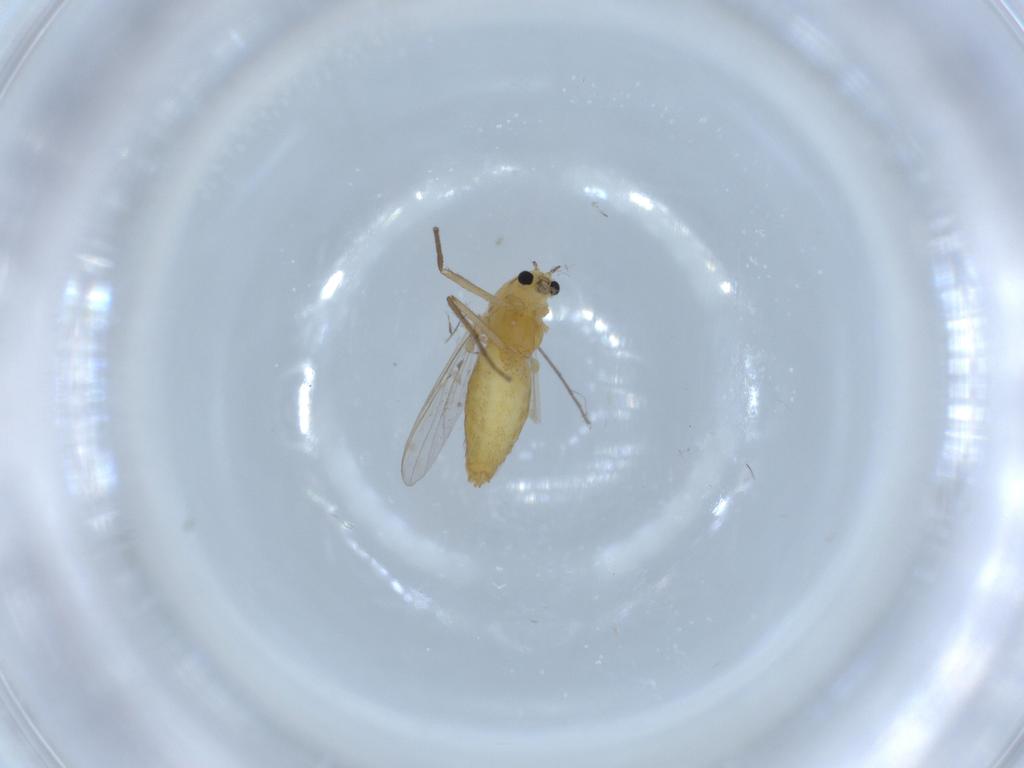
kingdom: Animalia
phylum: Arthropoda
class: Insecta
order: Diptera
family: Chironomidae
